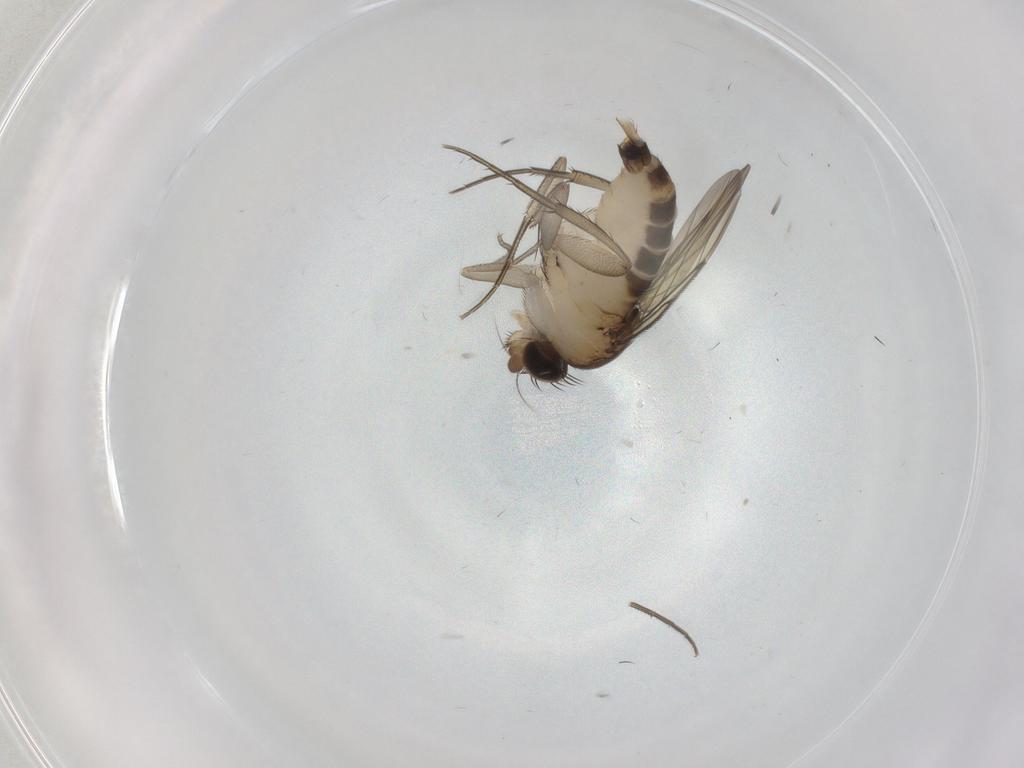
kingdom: Animalia
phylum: Arthropoda
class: Insecta
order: Diptera
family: Phoridae
